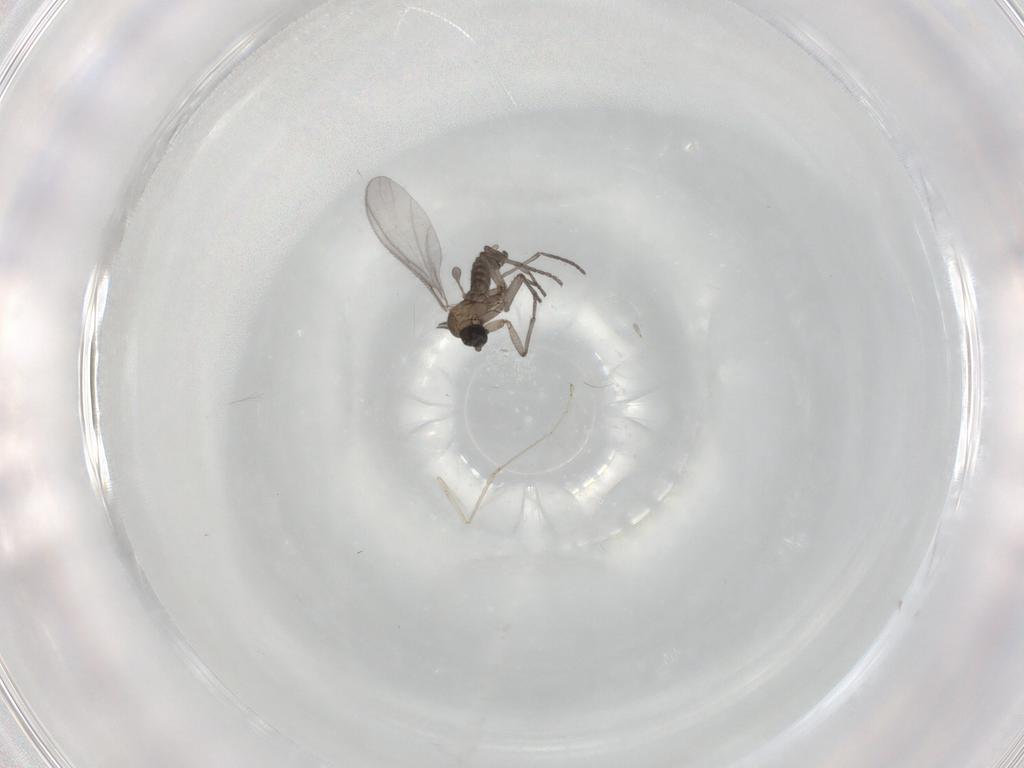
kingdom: Animalia
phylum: Arthropoda
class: Insecta
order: Diptera
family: Sciaridae
